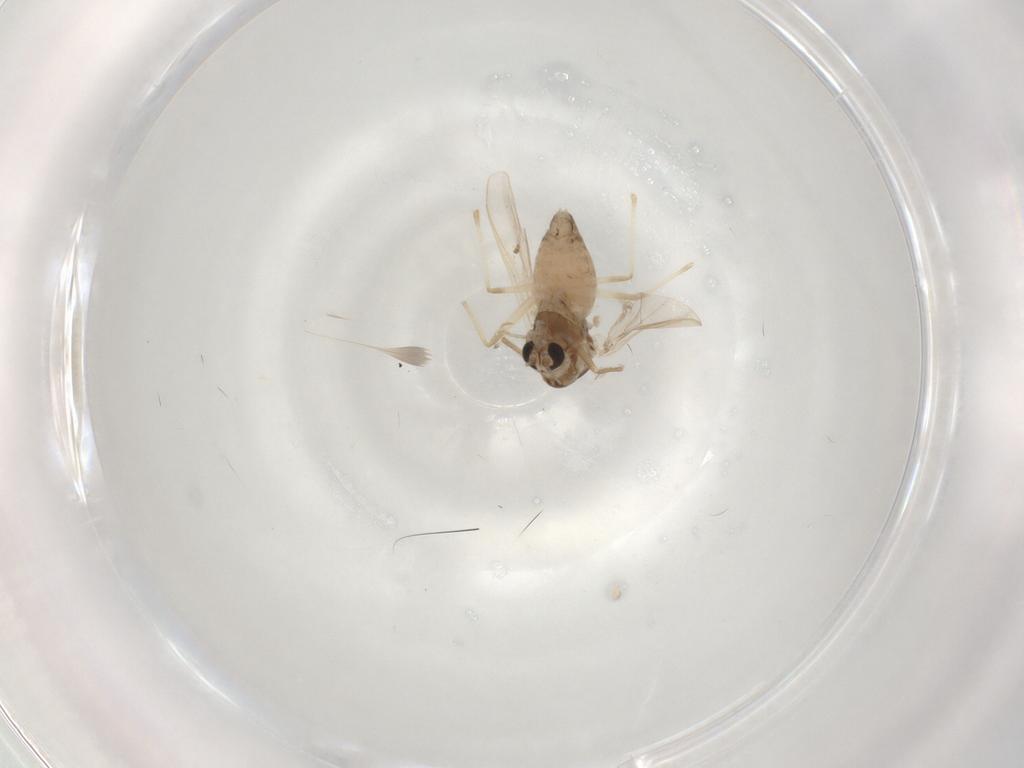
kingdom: Animalia
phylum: Arthropoda
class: Insecta
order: Diptera
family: Chironomidae
